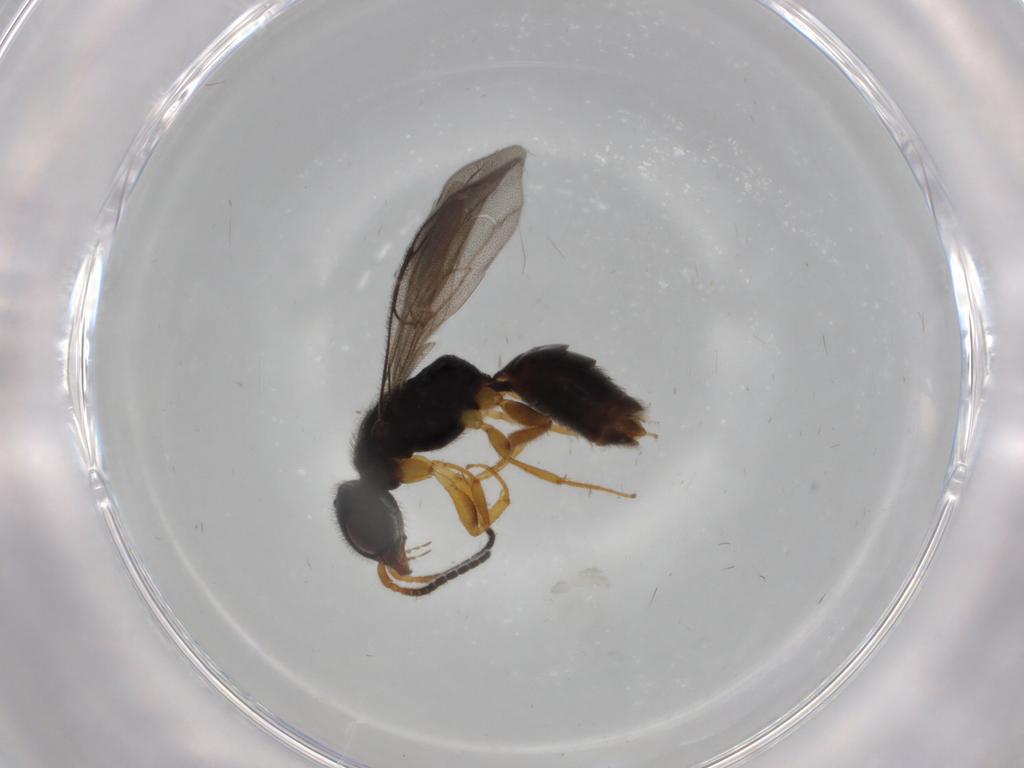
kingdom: Animalia
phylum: Arthropoda
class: Insecta
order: Hymenoptera
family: Bethylidae
